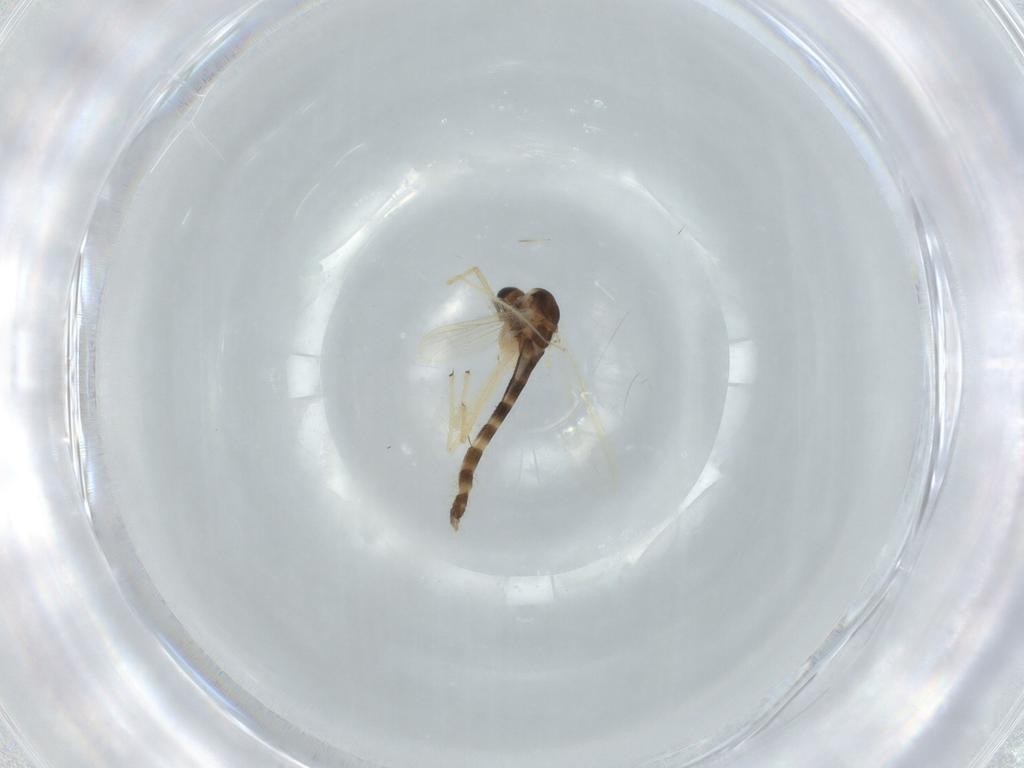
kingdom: Animalia
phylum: Arthropoda
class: Insecta
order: Diptera
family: Chironomidae
